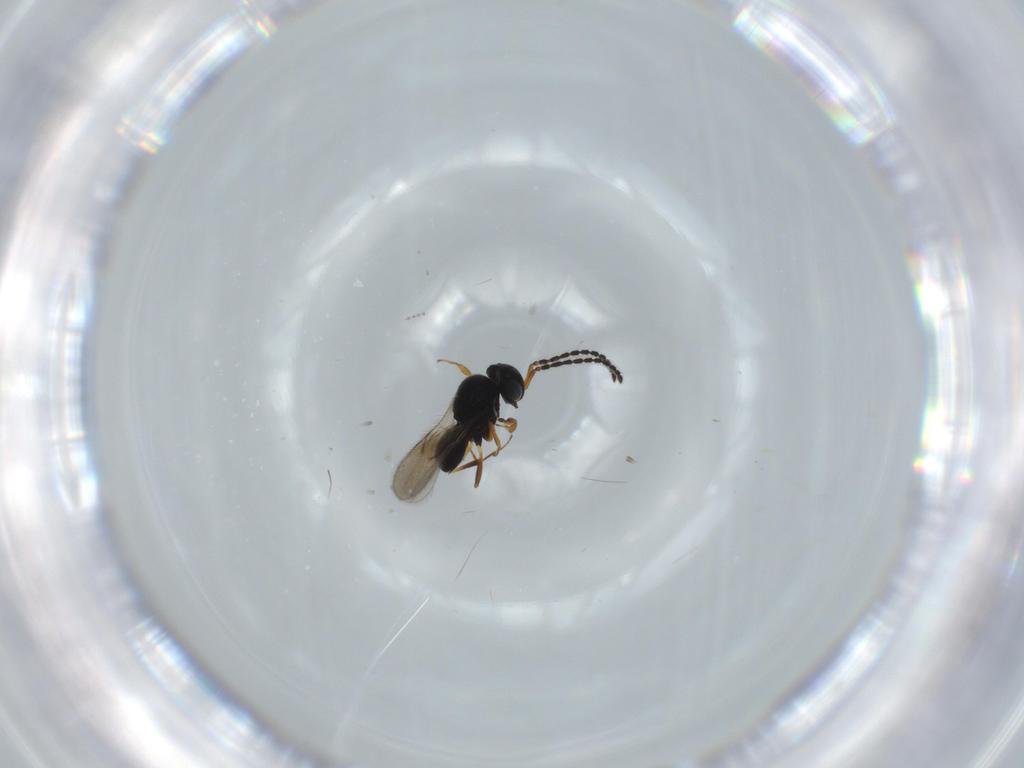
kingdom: Animalia
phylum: Arthropoda
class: Insecta
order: Hymenoptera
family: Scelionidae
